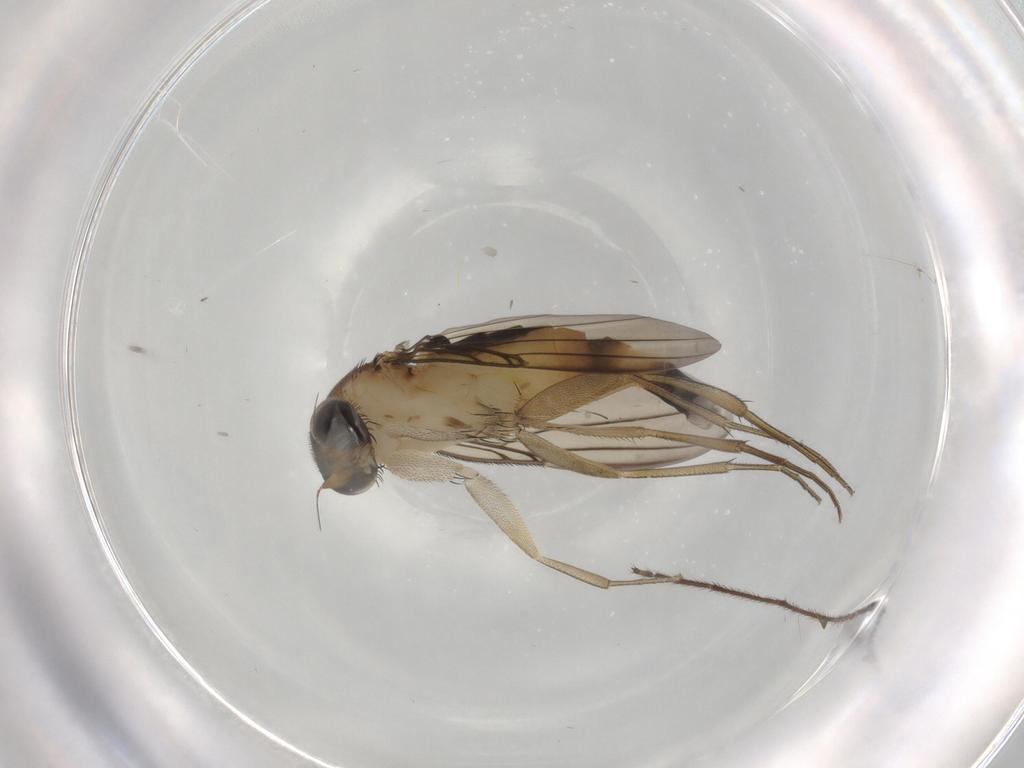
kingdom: Animalia
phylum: Arthropoda
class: Insecta
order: Diptera
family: Phoridae
